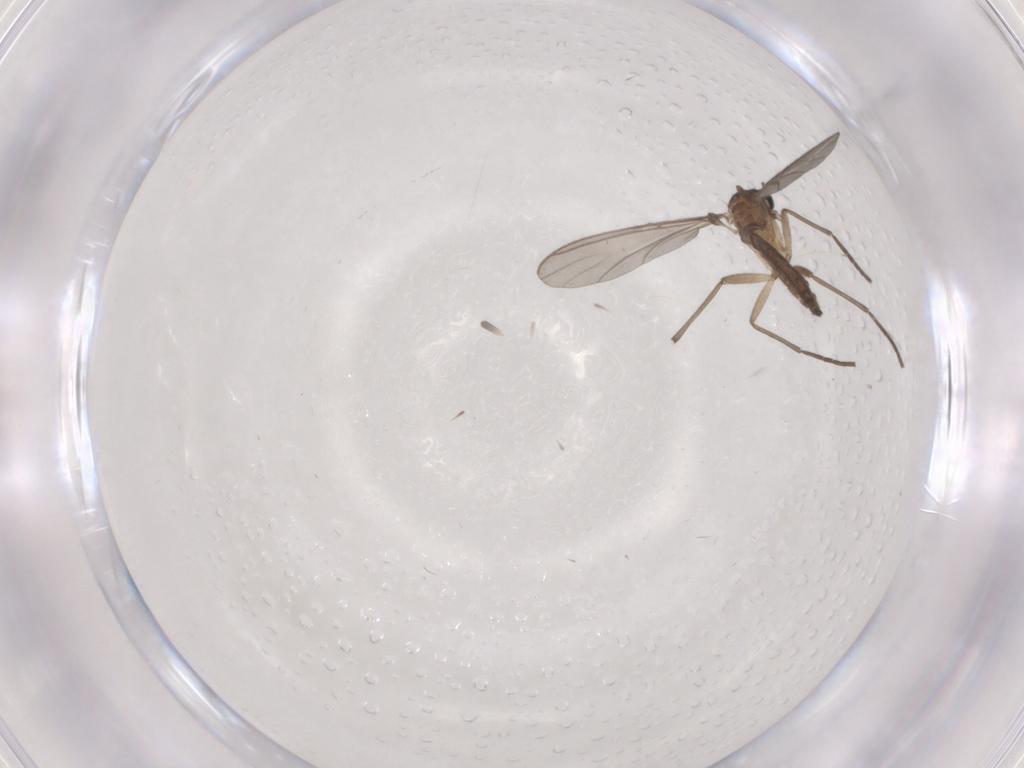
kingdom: Animalia
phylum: Arthropoda
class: Insecta
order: Diptera
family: Sciaridae
